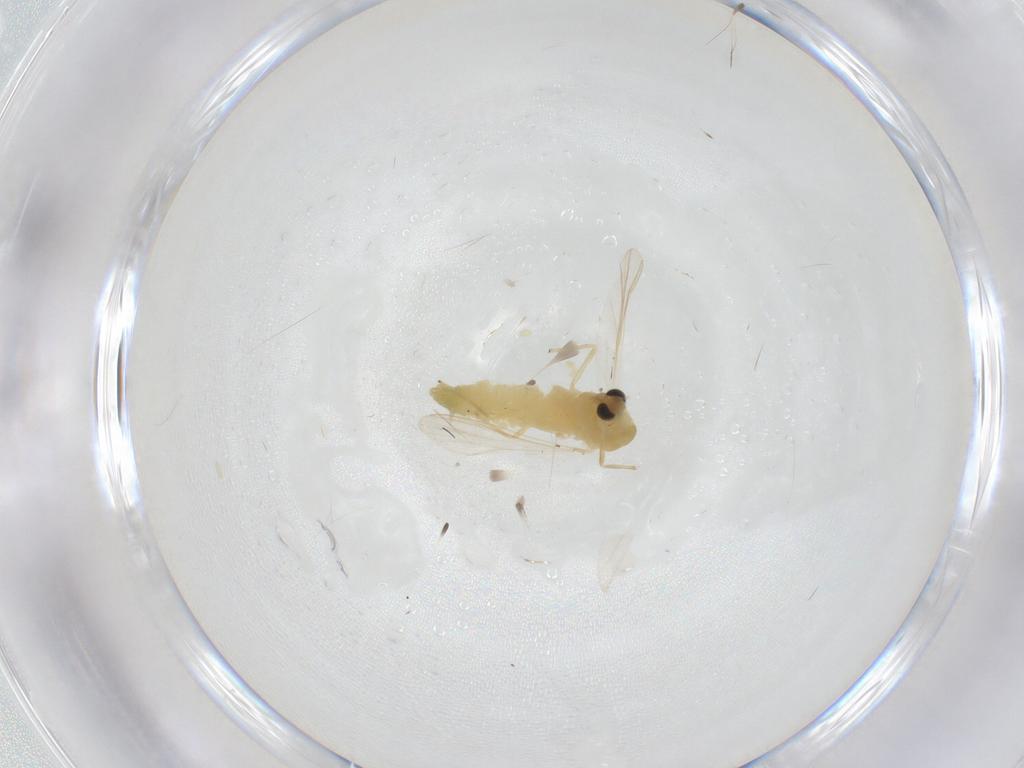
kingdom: Animalia
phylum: Arthropoda
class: Insecta
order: Diptera
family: Chironomidae
